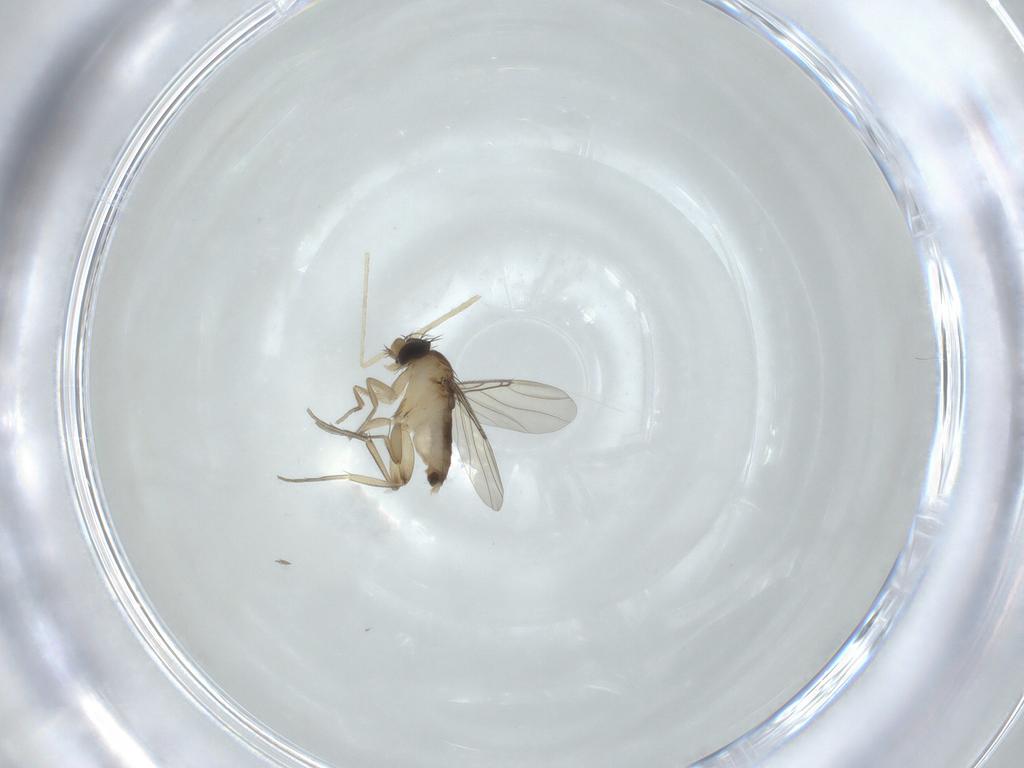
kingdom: Animalia
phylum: Arthropoda
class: Insecta
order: Diptera
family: Phoridae
